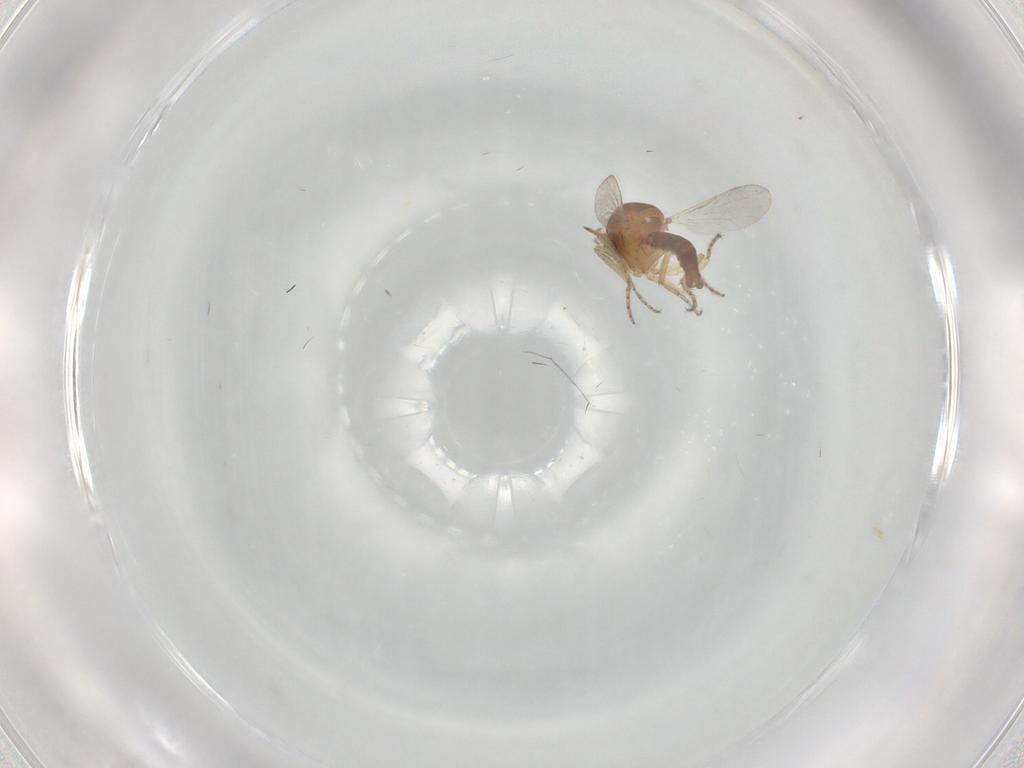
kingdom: Animalia
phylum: Arthropoda
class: Insecta
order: Diptera
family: Ceratopogonidae
